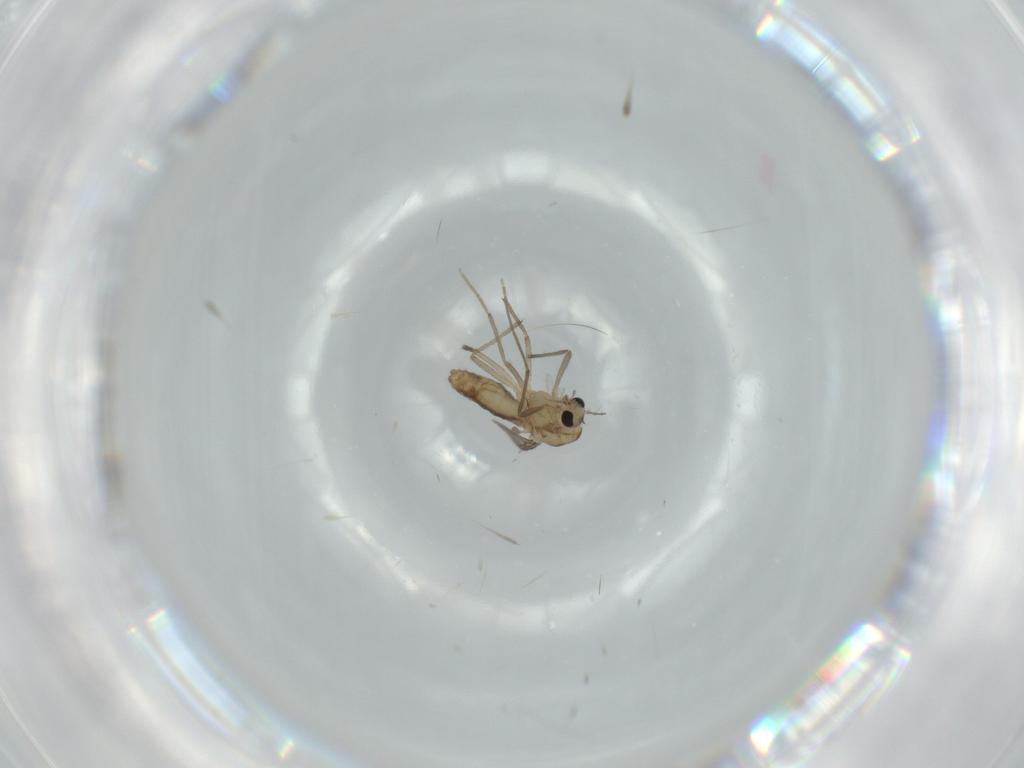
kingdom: Animalia
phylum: Arthropoda
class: Insecta
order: Diptera
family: Chironomidae
